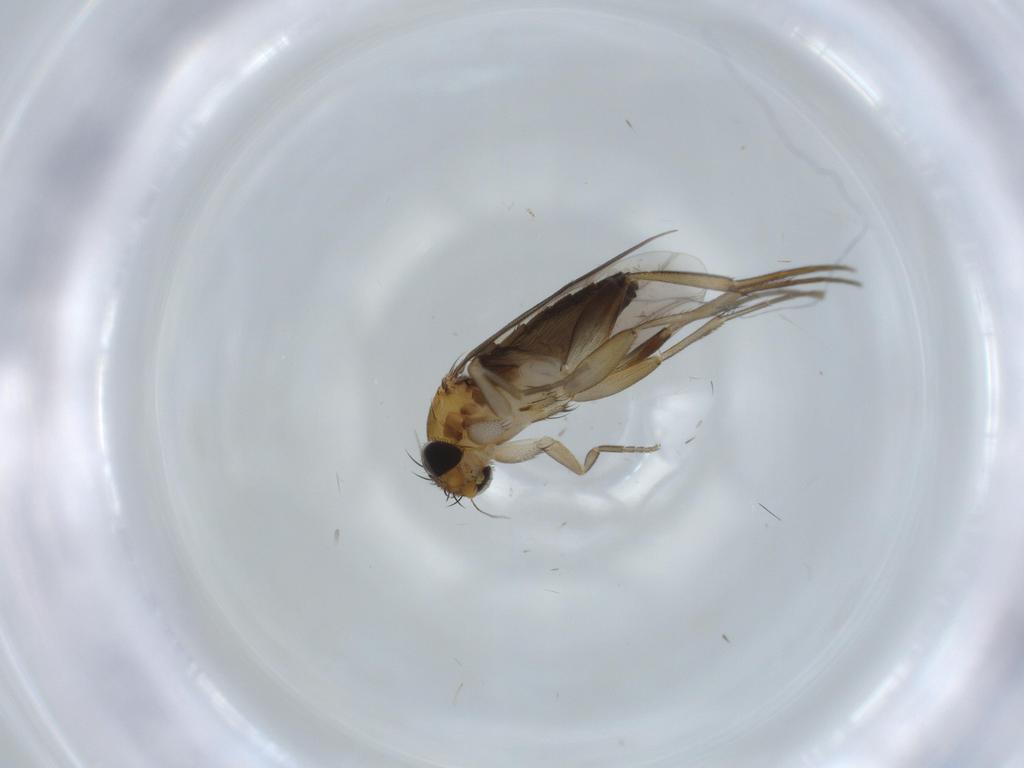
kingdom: Animalia
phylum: Arthropoda
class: Insecta
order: Diptera
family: Phoridae
